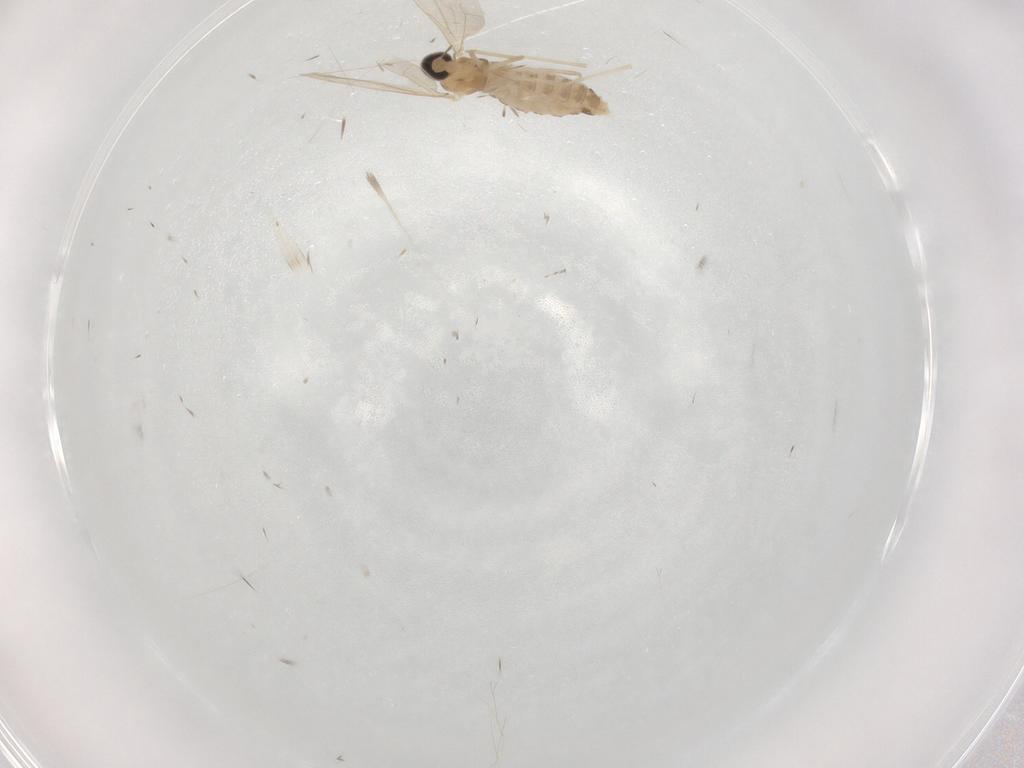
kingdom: Animalia
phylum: Arthropoda
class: Insecta
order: Diptera
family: Cecidomyiidae
